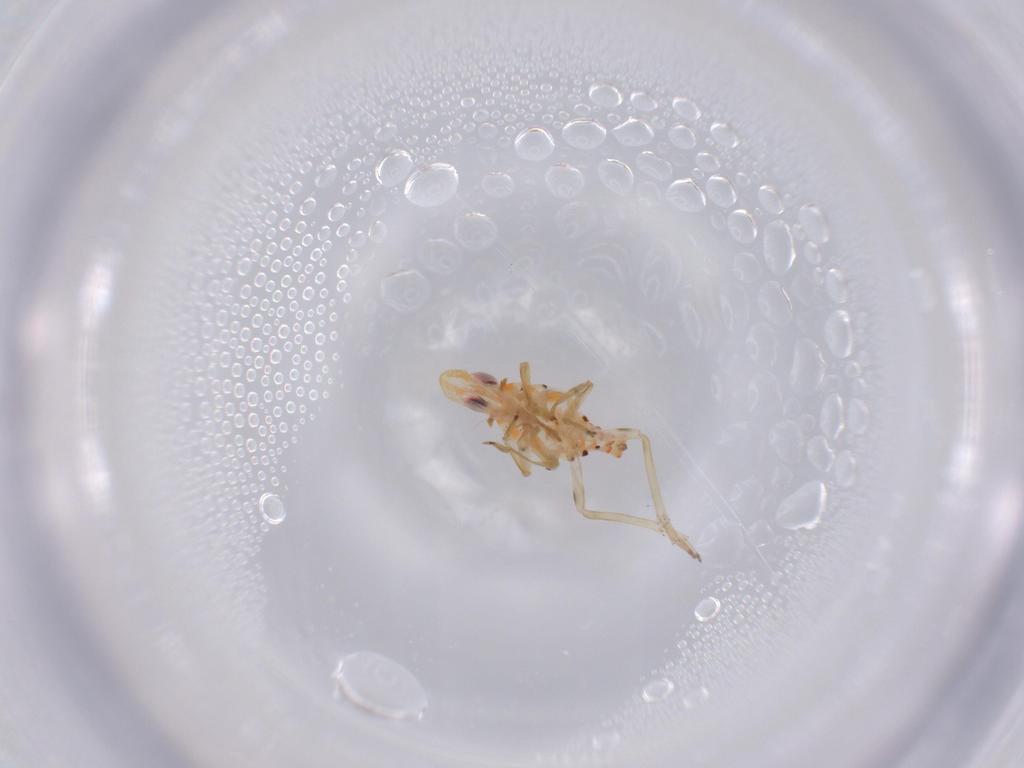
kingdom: Animalia
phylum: Arthropoda
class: Insecta
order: Hemiptera
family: Tropiduchidae
